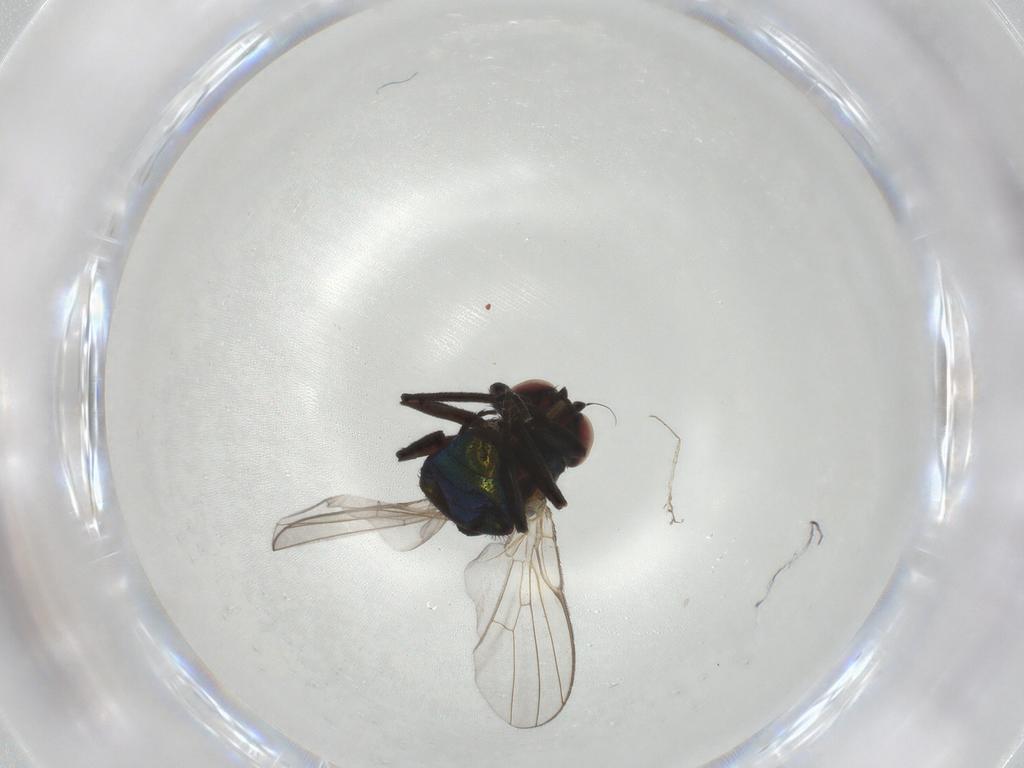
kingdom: Animalia
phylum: Arthropoda
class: Insecta
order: Diptera
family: Agromyzidae
